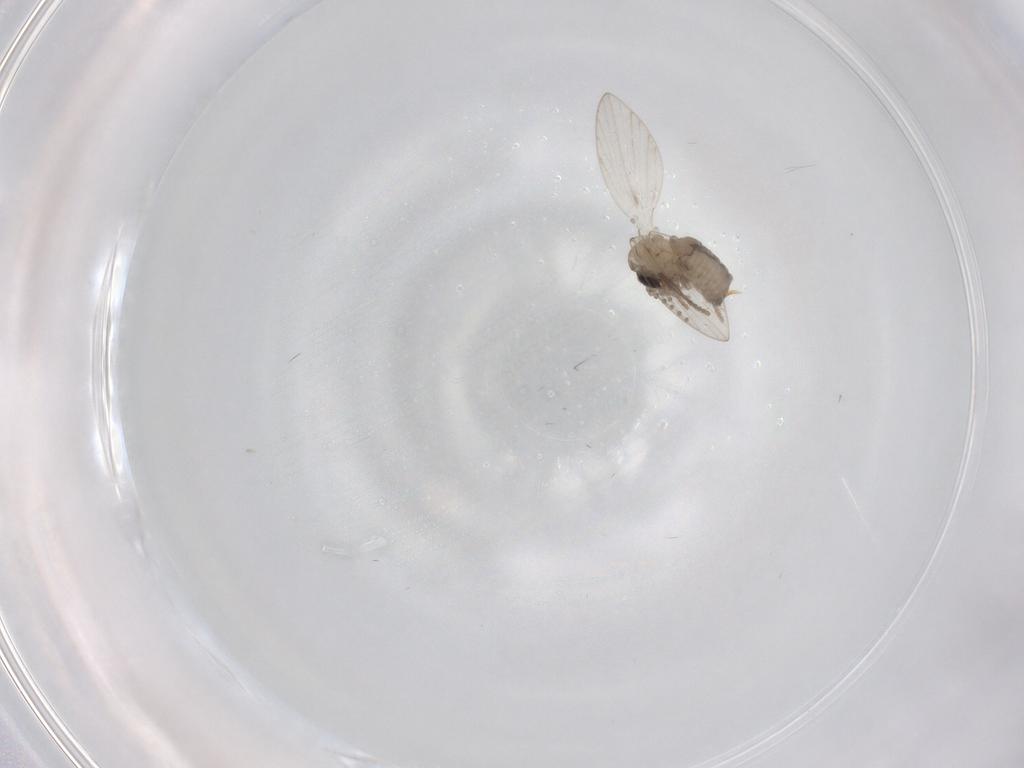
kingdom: Animalia
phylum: Arthropoda
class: Insecta
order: Diptera
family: Psychodidae
